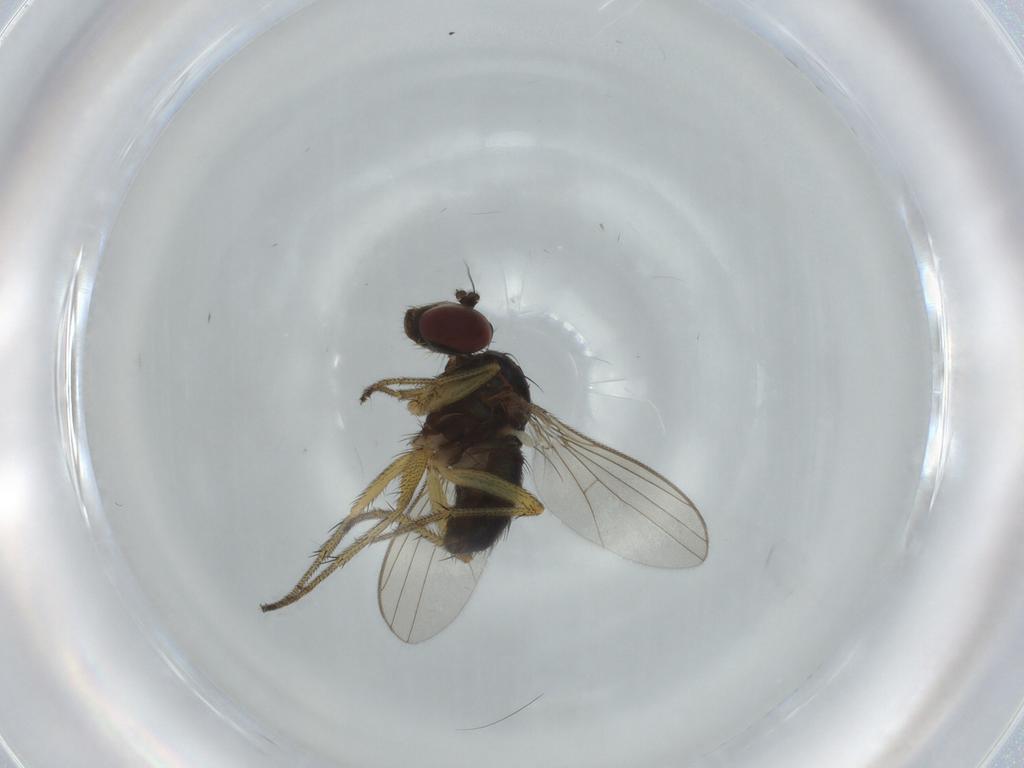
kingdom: Animalia
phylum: Arthropoda
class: Insecta
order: Diptera
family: Dolichopodidae
